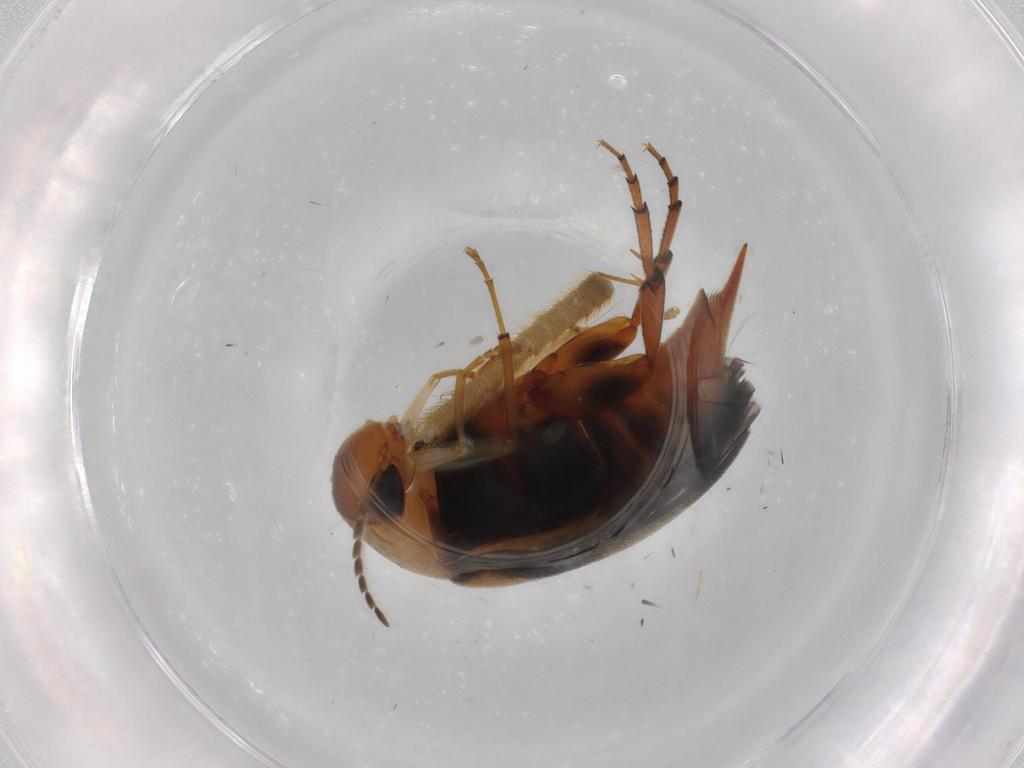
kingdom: Animalia
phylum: Arthropoda
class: Insecta
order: Coleoptera
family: Mordellidae
